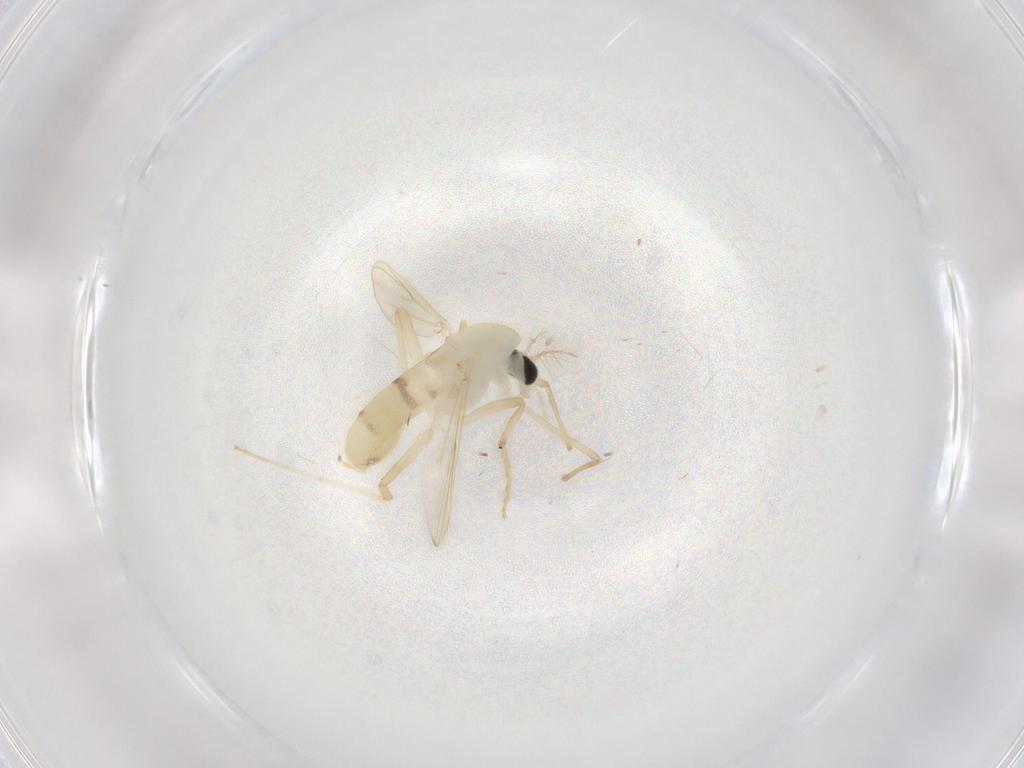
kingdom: Animalia
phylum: Arthropoda
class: Insecta
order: Diptera
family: Chironomidae
